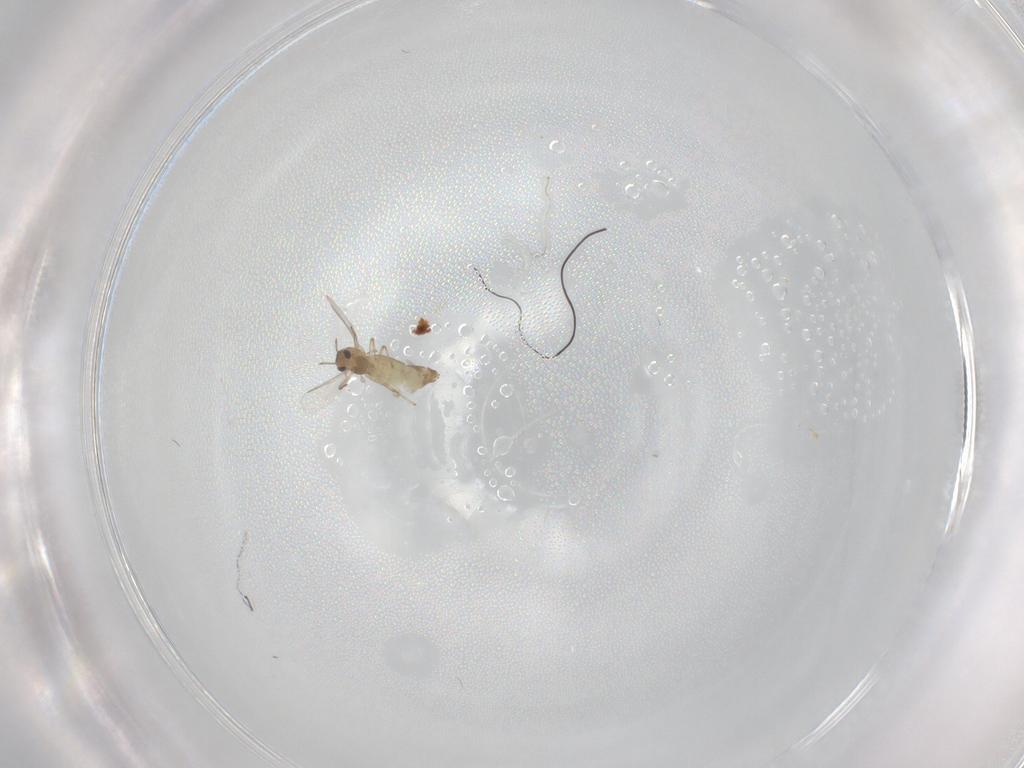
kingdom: Animalia
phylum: Arthropoda
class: Insecta
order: Diptera
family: Chironomidae
